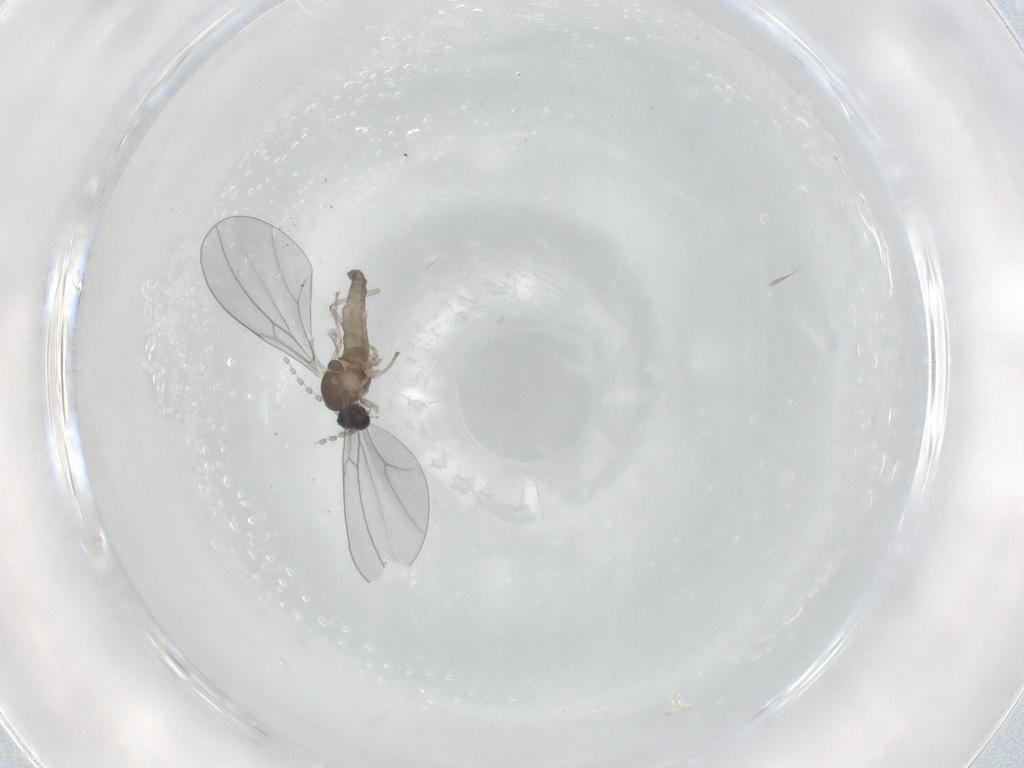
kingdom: Animalia
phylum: Arthropoda
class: Insecta
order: Diptera
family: Cecidomyiidae
